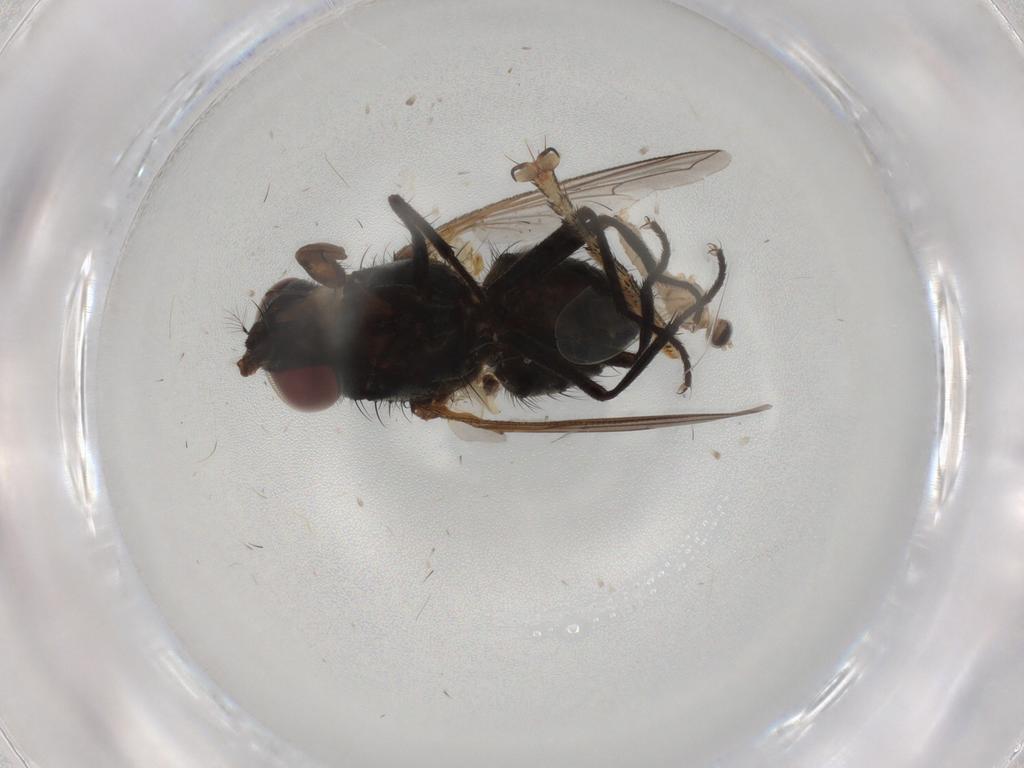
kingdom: Animalia
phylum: Arthropoda
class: Insecta
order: Diptera
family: Muscidae
